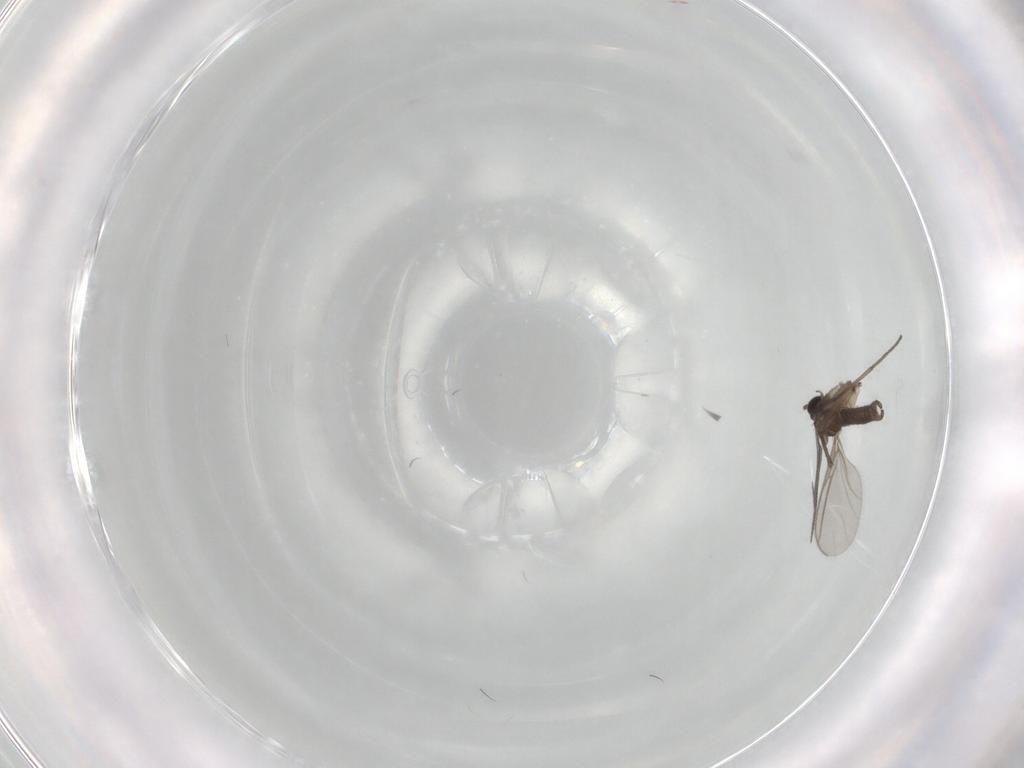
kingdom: Animalia
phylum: Arthropoda
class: Insecta
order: Diptera
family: Sciaridae
